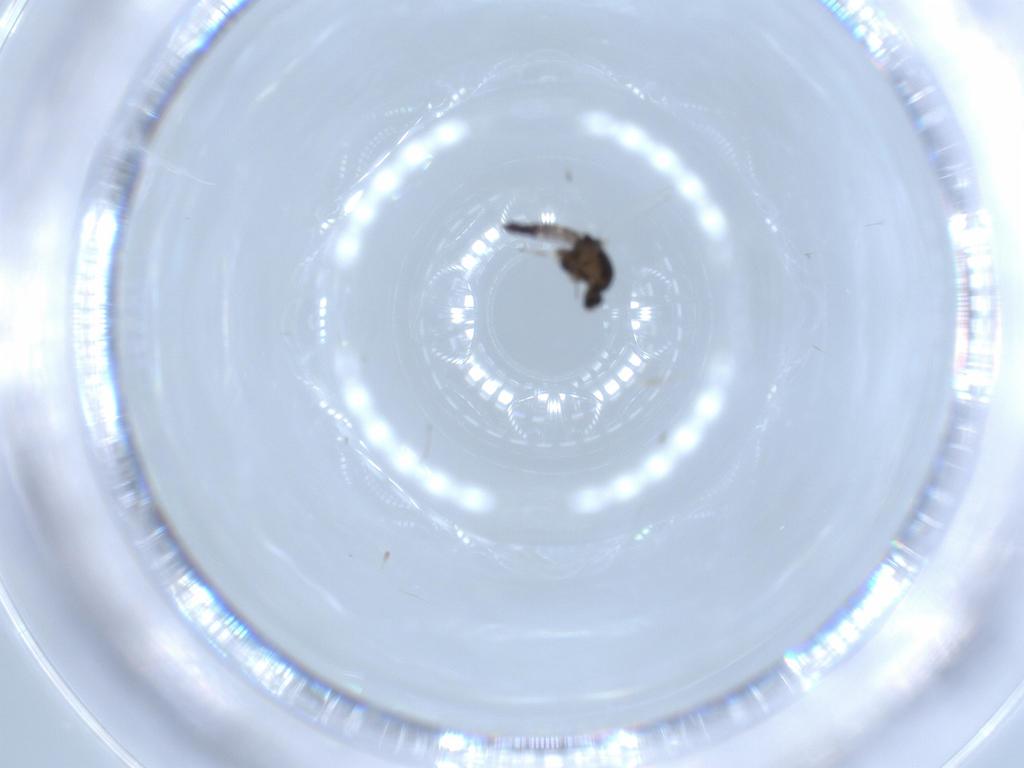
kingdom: Animalia
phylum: Arthropoda
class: Insecta
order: Diptera
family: Chironomidae
